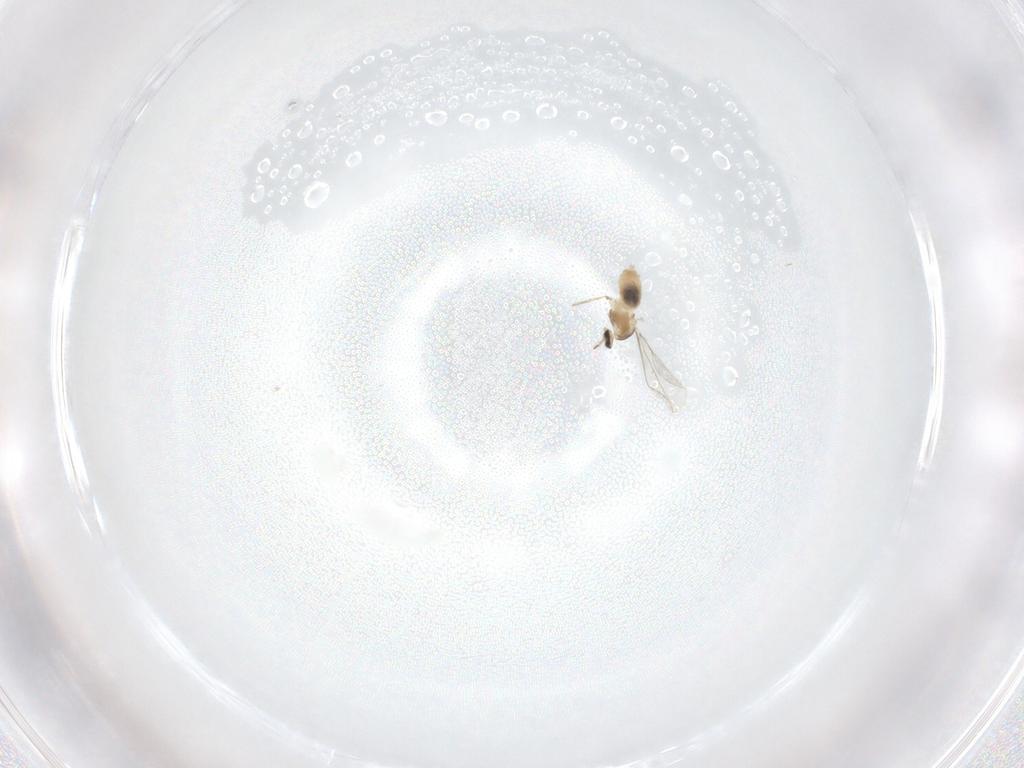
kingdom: Animalia
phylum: Arthropoda
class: Insecta
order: Diptera
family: Cecidomyiidae
